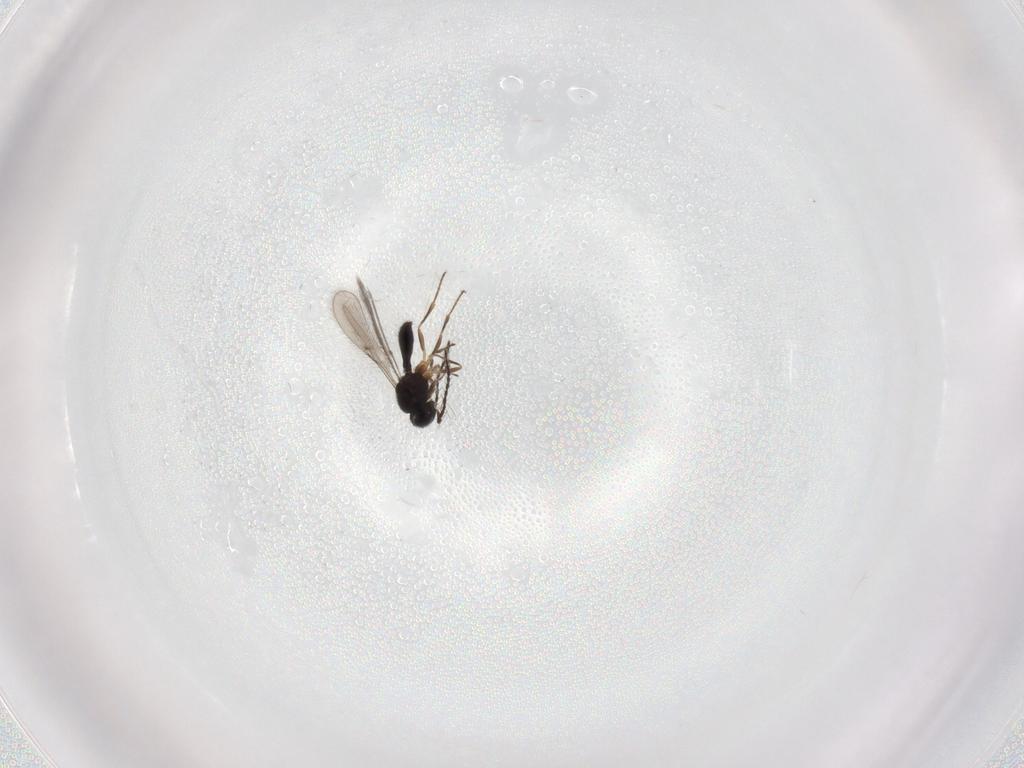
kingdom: Animalia
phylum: Arthropoda
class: Insecta
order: Hymenoptera
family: Scelionidae
